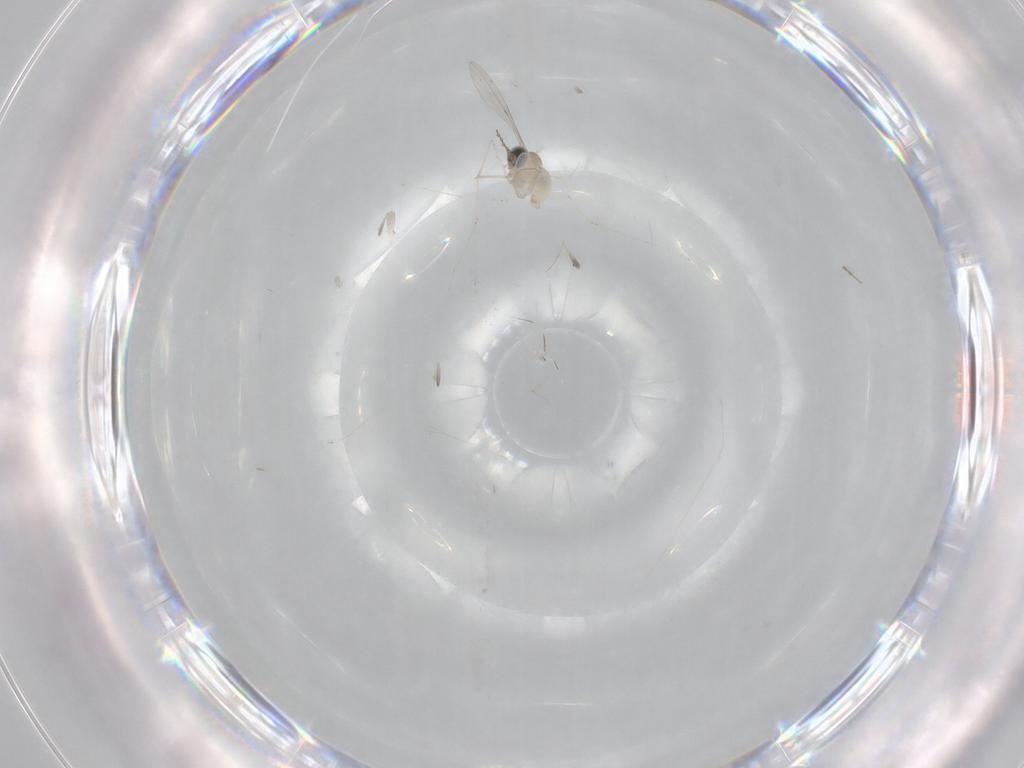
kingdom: Animalia
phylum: Arthropoda
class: Insecta
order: Diptera
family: Cecidomyiidae
